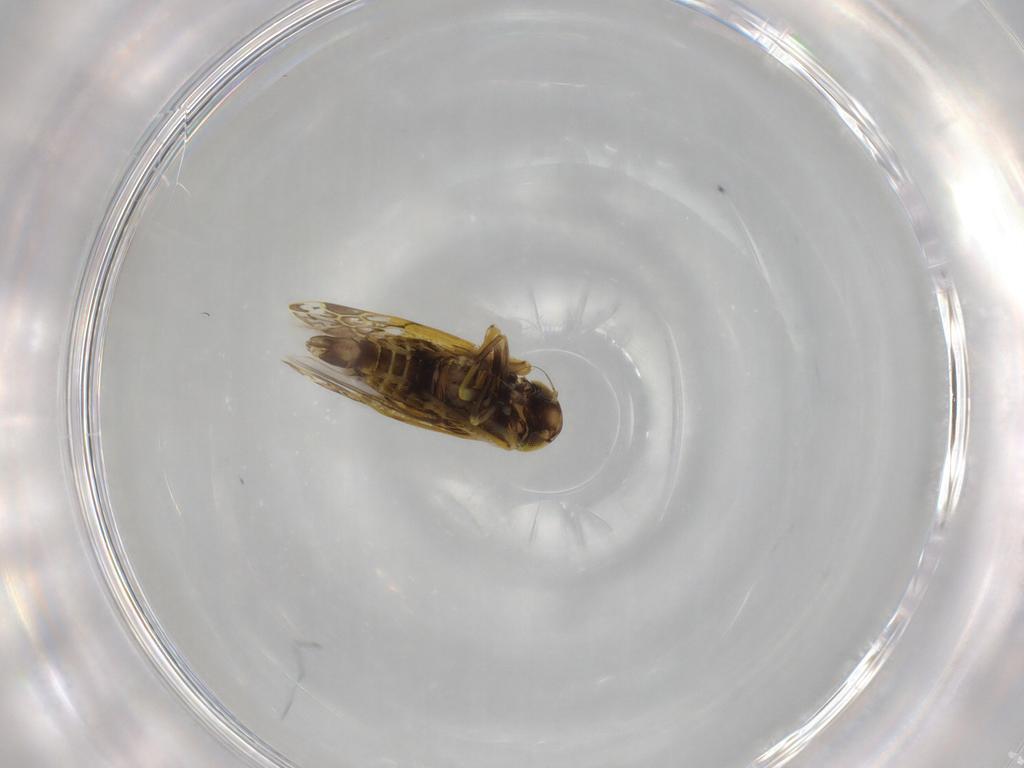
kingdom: Animalia
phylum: Arthropoda
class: Insecta
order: Hemiptera
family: Cicadellidae
